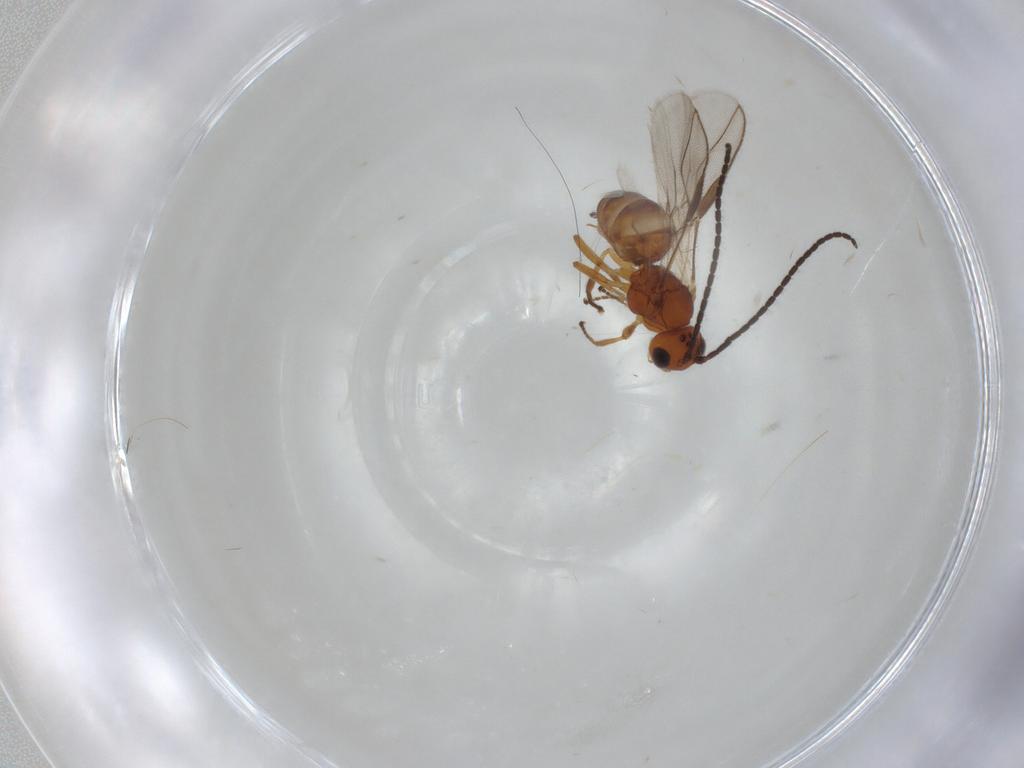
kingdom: Animalia
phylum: Arthropoda
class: Insecta
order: Hymenoptera
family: Braconidae
